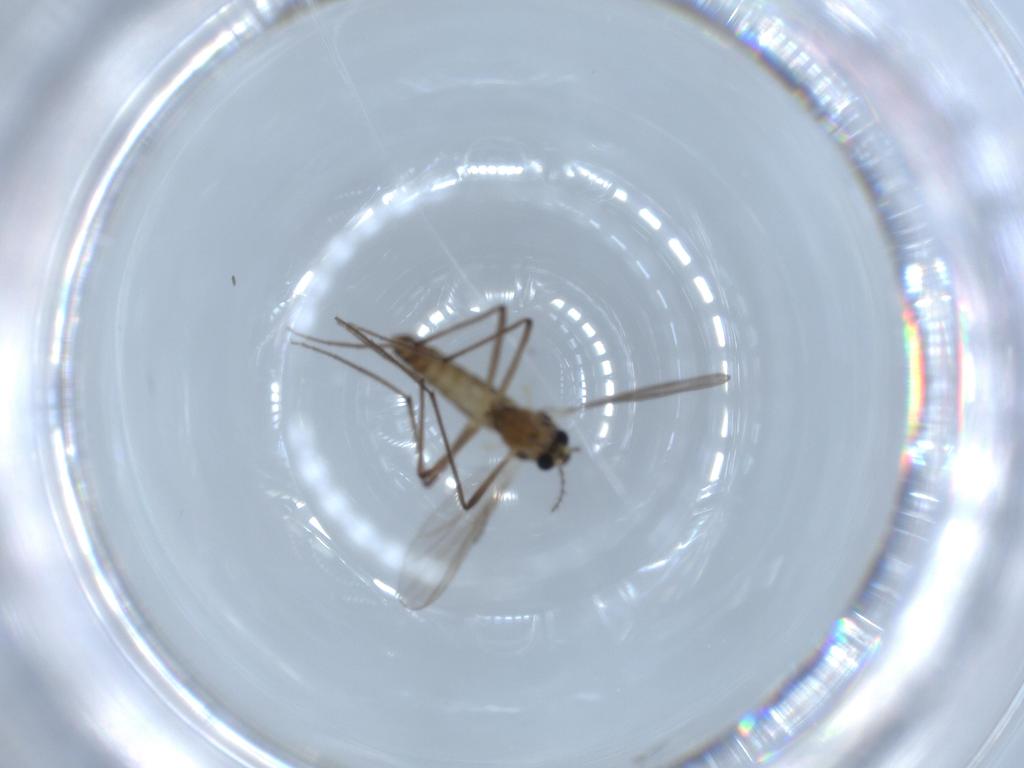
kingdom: Animalia
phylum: Arthropoda
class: Insecta
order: Diptera
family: Chironomidae
